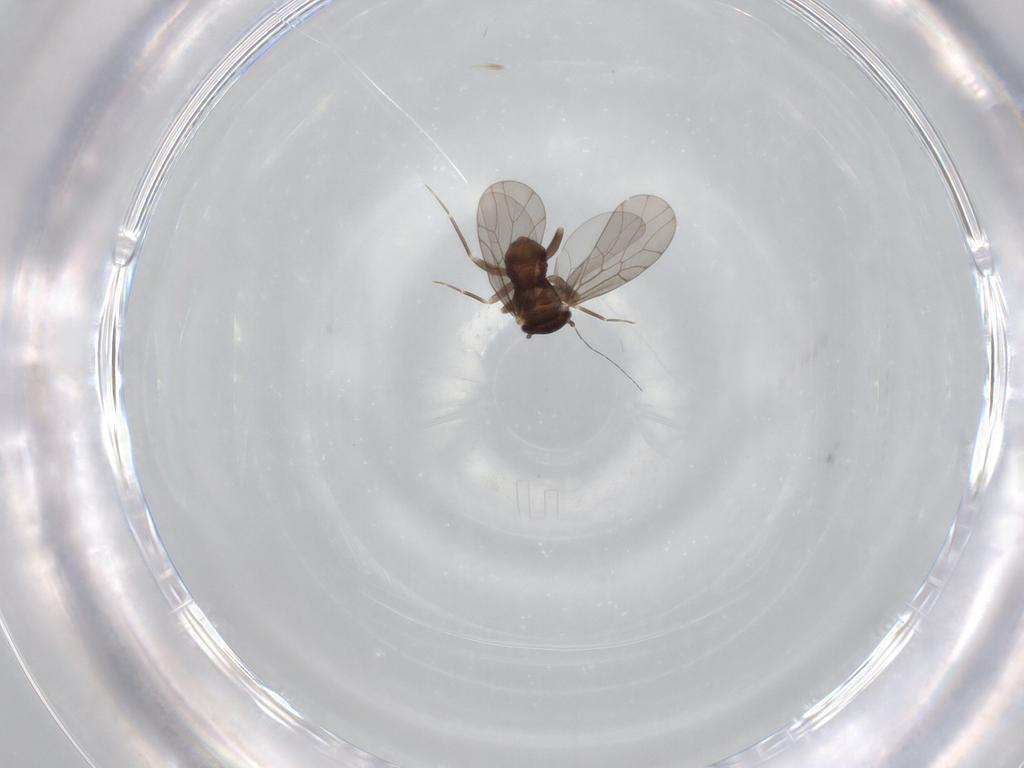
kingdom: Animalia
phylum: Arthropoda
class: Insecta
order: Psocodea
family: Lepidopsocidae
